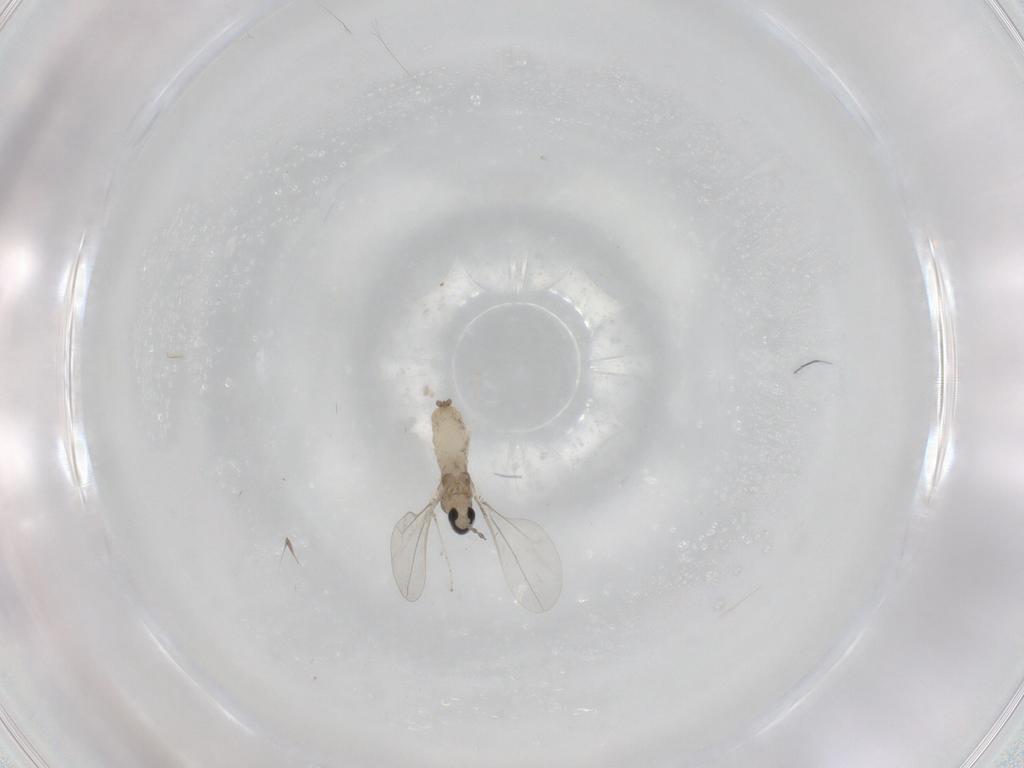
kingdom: Animalia
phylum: Arthropoda
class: Insecta
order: Diptera
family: Cecidomyiidae
